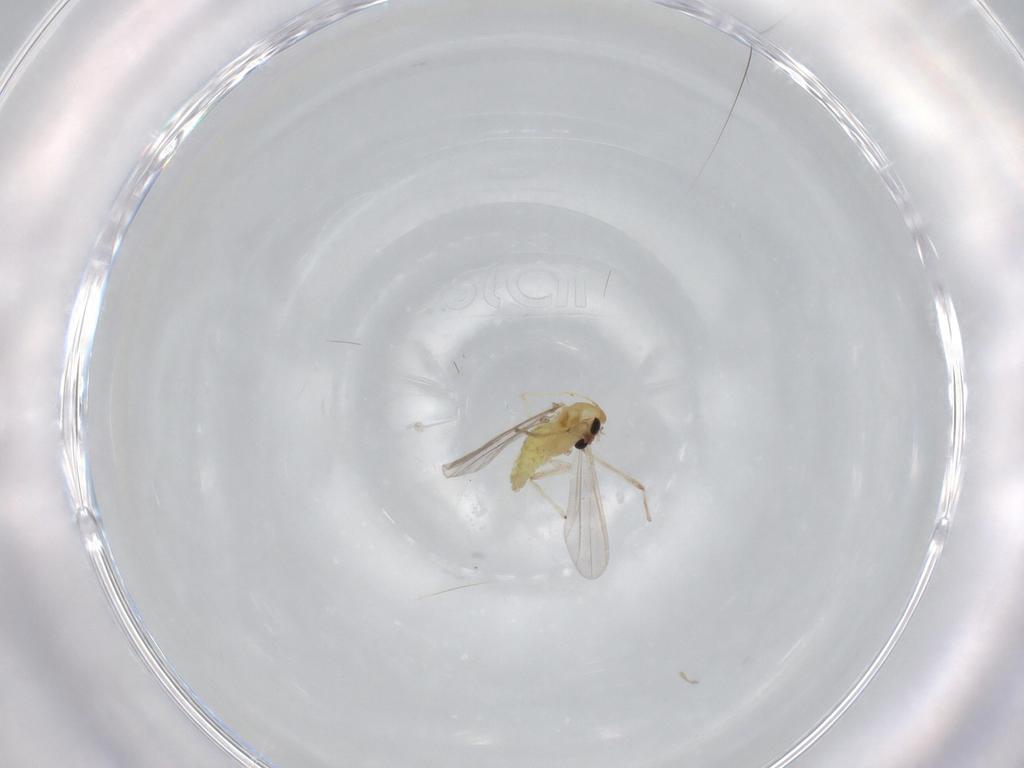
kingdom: Animalia
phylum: Arthropoda
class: Insecta
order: Diptera
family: Chironomidae
